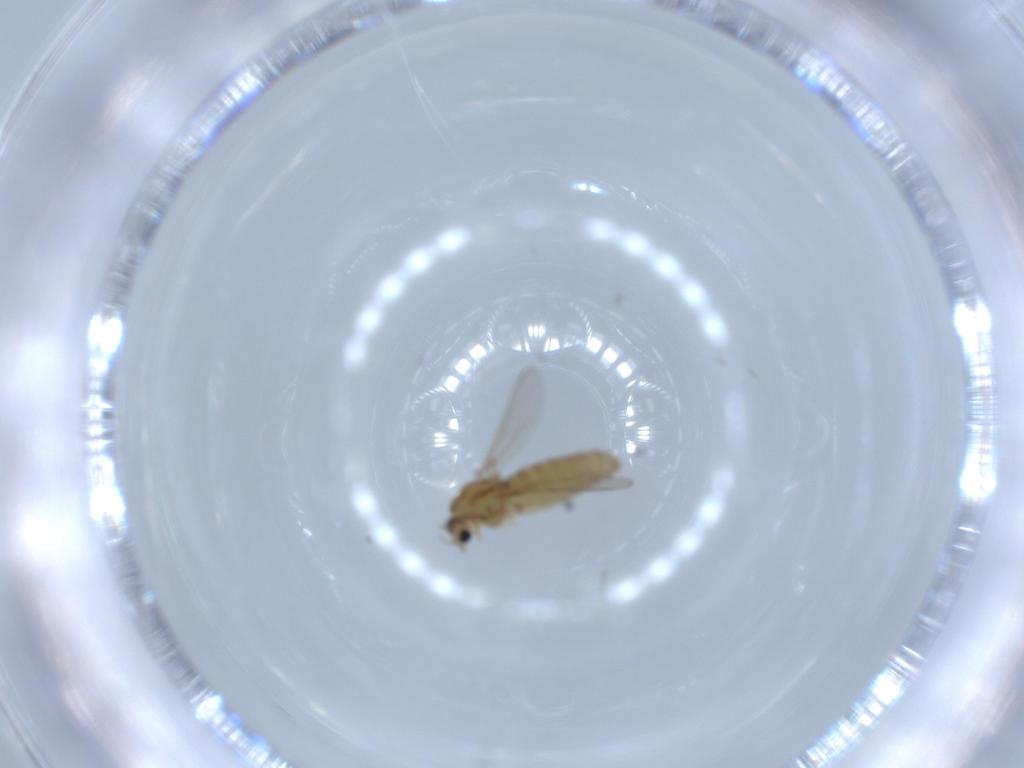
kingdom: Animalia
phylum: Arthropoda
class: Insecta
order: Diptera
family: Chironomidae
